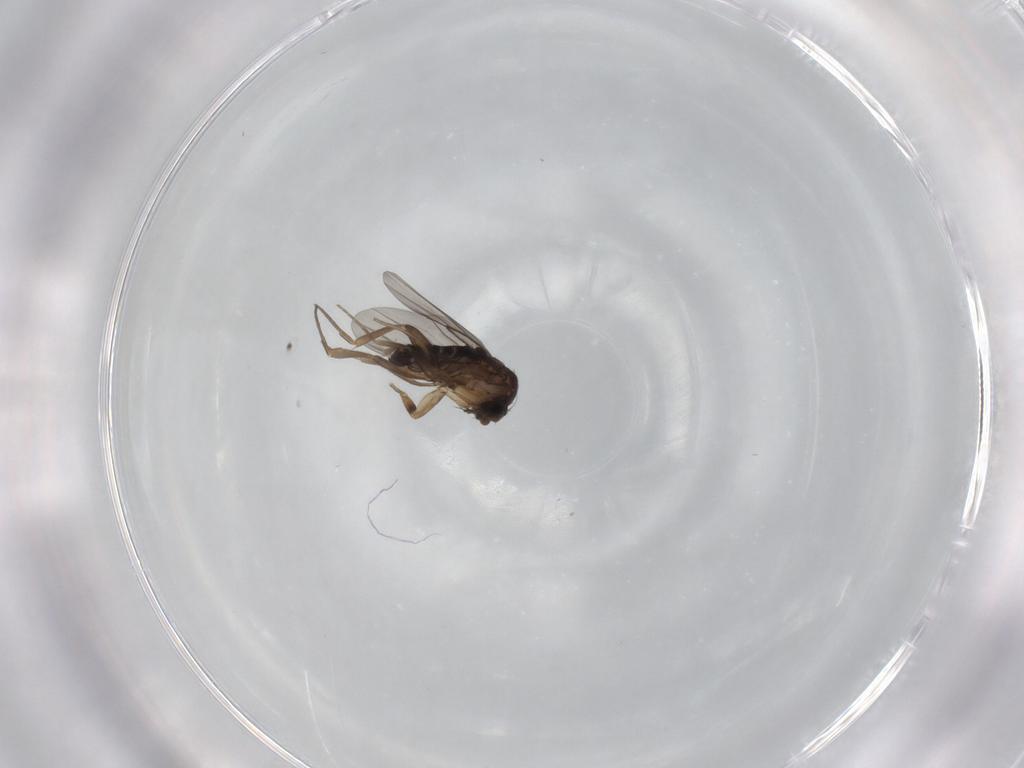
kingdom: Animalia
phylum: Arthropoda
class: Insecta
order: Diptera
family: Phoridae
